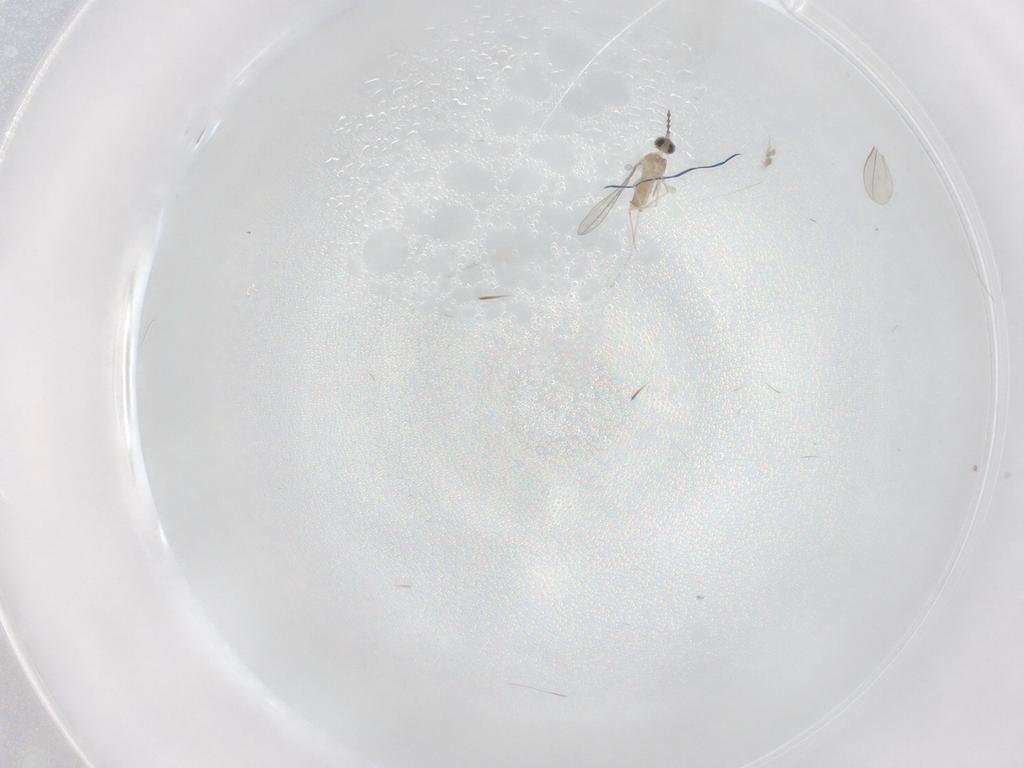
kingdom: Animalia
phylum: Arthropoda
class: Insecta
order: Diptera
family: Cecidomyiidae
